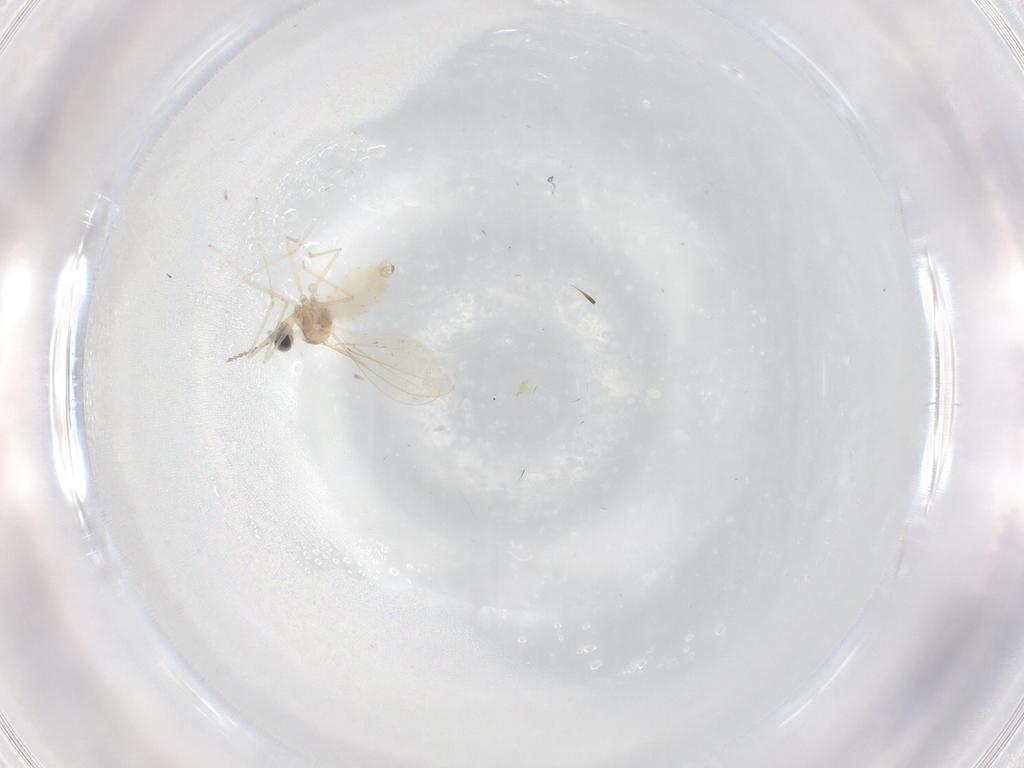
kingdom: Animalia
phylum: Arthropoda
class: Insecta
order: Diptera
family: Cecidomyiidae
